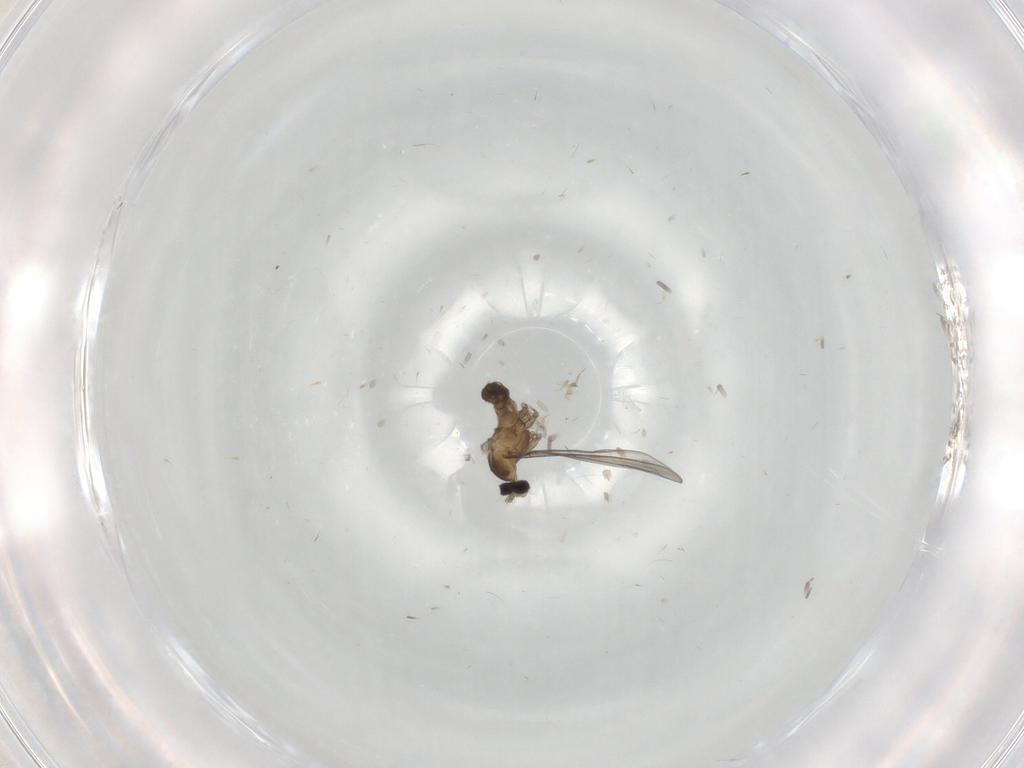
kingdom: Animalia
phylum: Arthropoda
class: Insecta
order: Diptera
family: Cecidomyiidae
